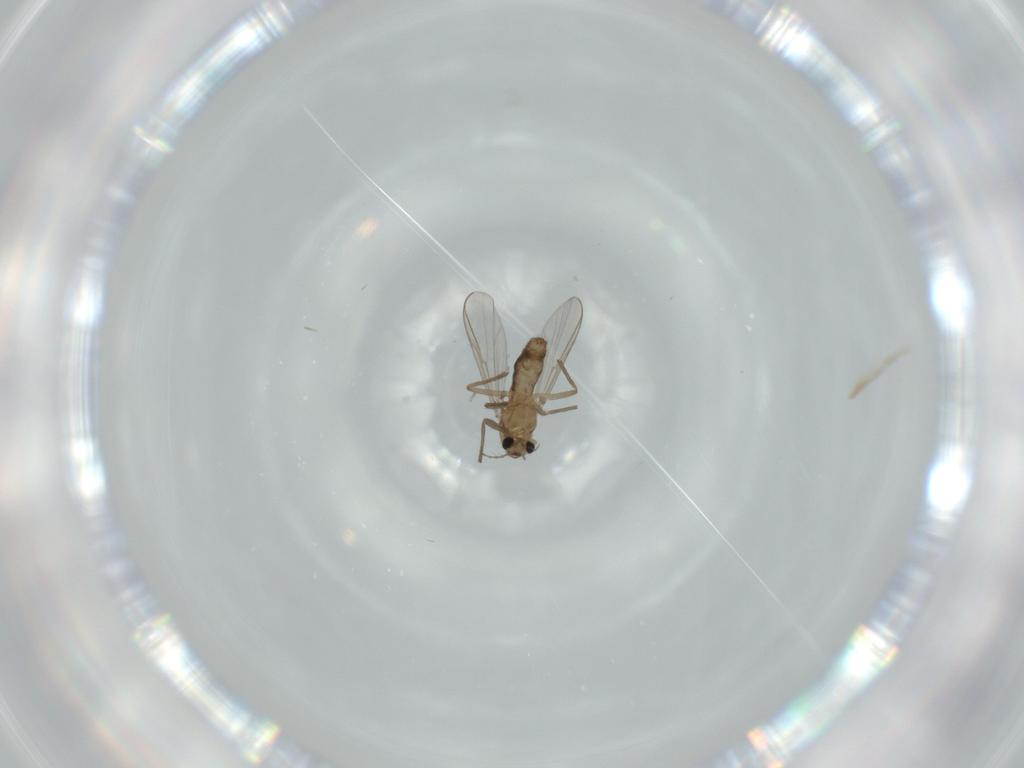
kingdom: Animalia
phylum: Arthropoda
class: Insecta
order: Diptera
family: Chironomidae
